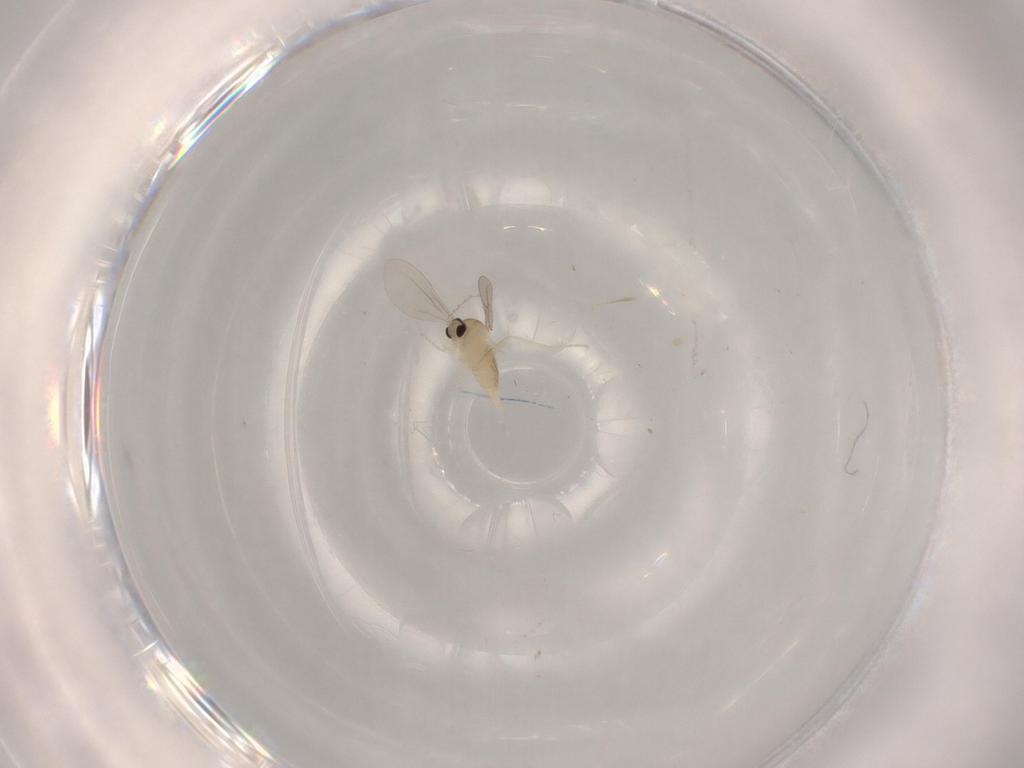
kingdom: Animalia
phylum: Arthropoda
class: Insecta
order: Diptera
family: Cecidomyiidae
